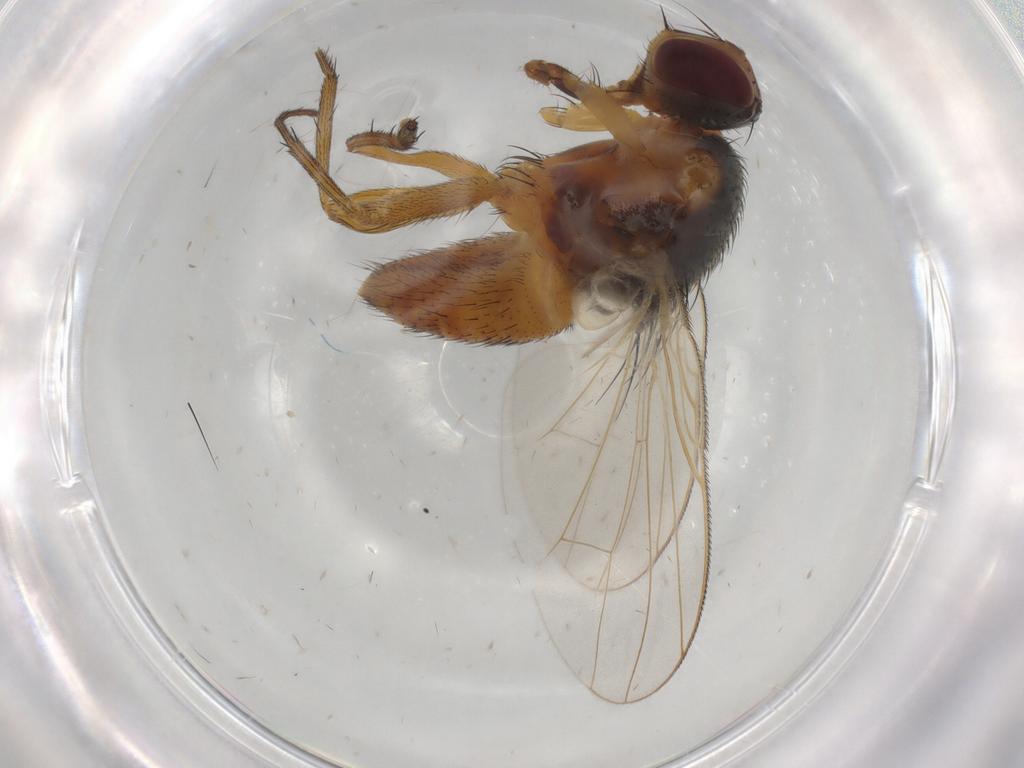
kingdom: Animalia
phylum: Arthropoda
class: Insecta
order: Diptera
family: Muscidae
